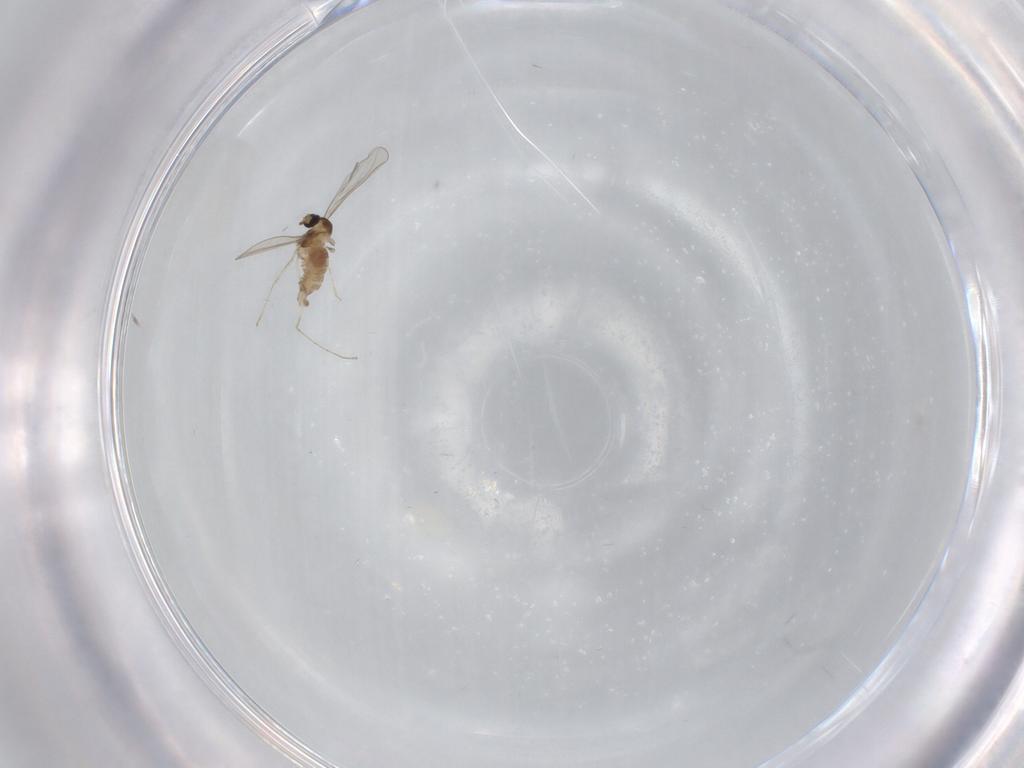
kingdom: Animalia
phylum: Arthropoda
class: Insecta
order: Diptera
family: Cecidomyiidae
